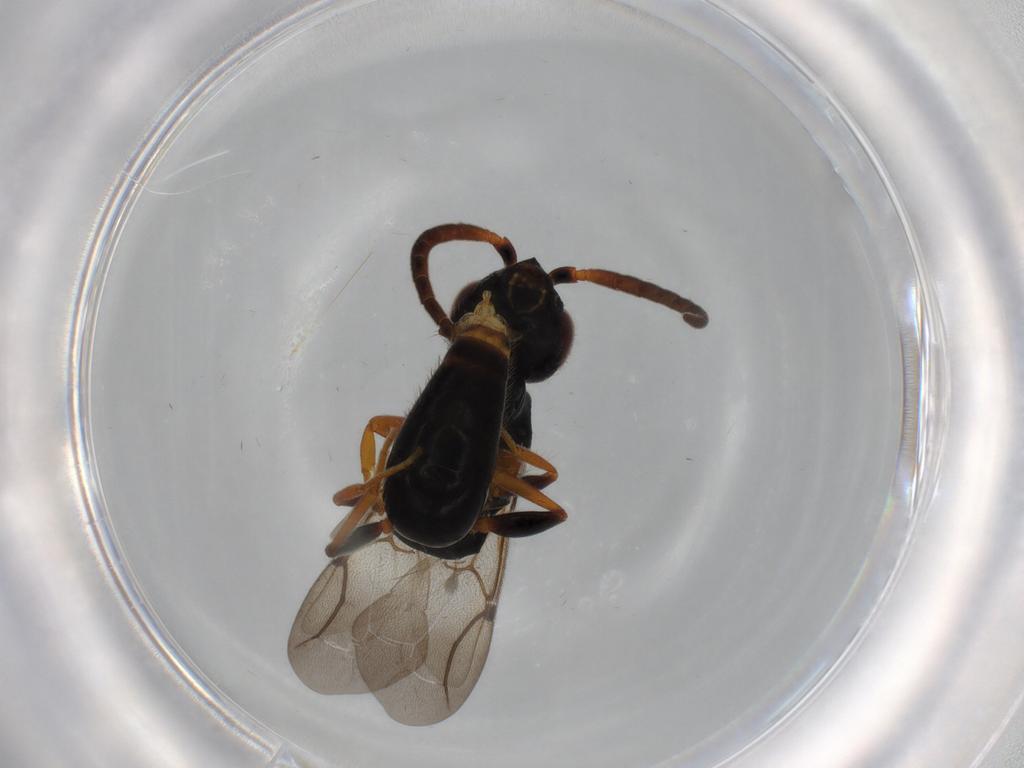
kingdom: Animalia
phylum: Arthropoda
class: Insecta
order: Hymenoptera
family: Bethylidae
